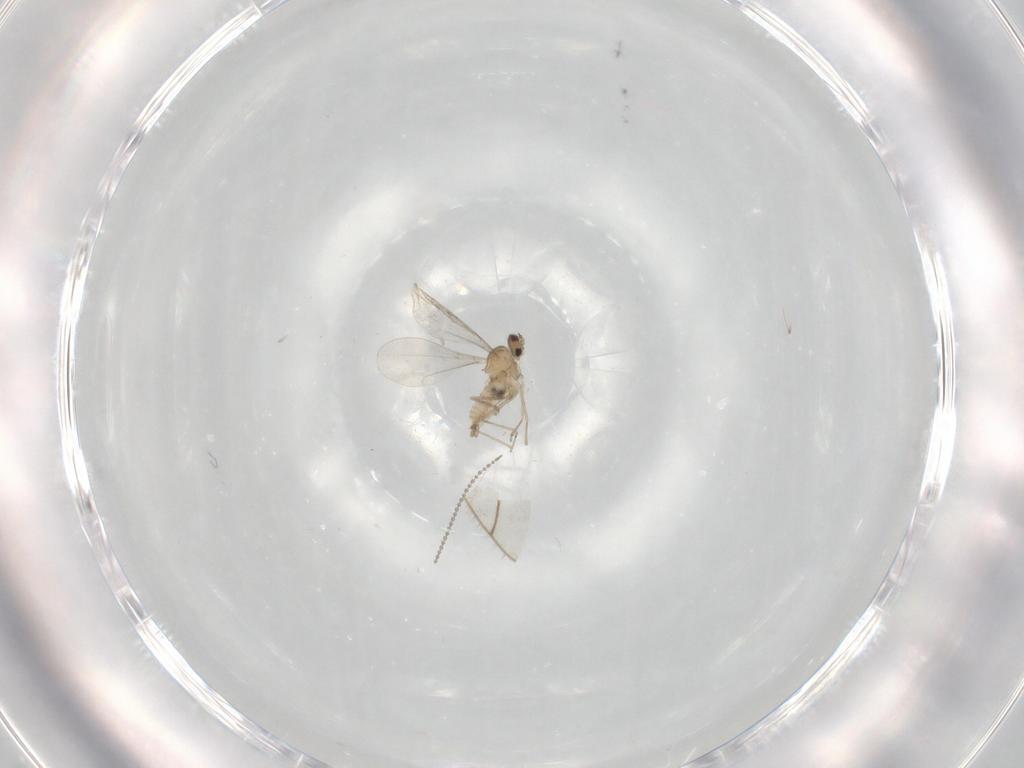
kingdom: Animalia
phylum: Arthropoda
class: Insecta
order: Diptera
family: Cecidomyiidae
